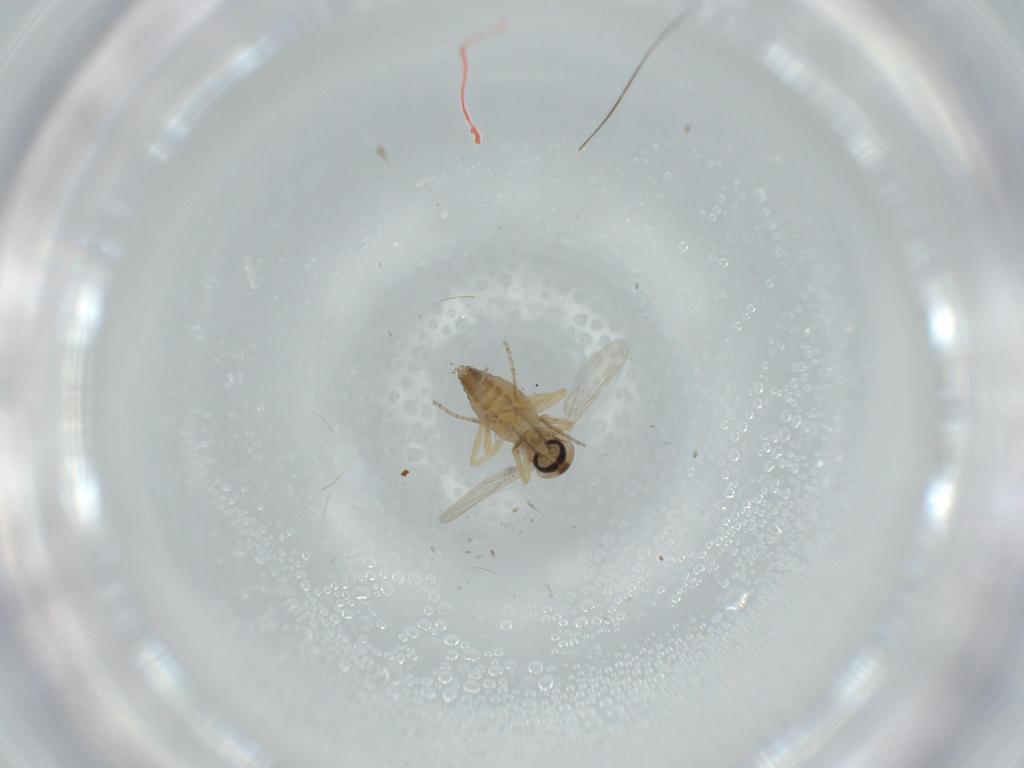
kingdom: Animalia
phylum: Arthropoda
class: Insecta
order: Diptera
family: Ceratopogonidae
